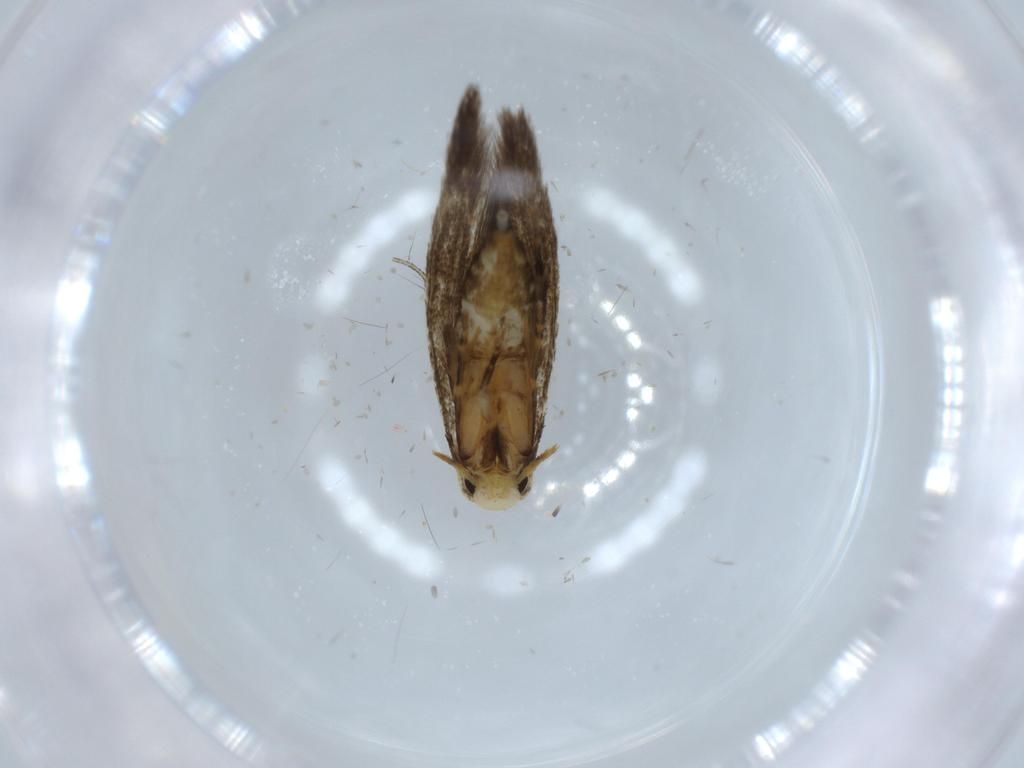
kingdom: Animalia
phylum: Arthropoda
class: Insecta
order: Lepidoptera
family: Tineidae
